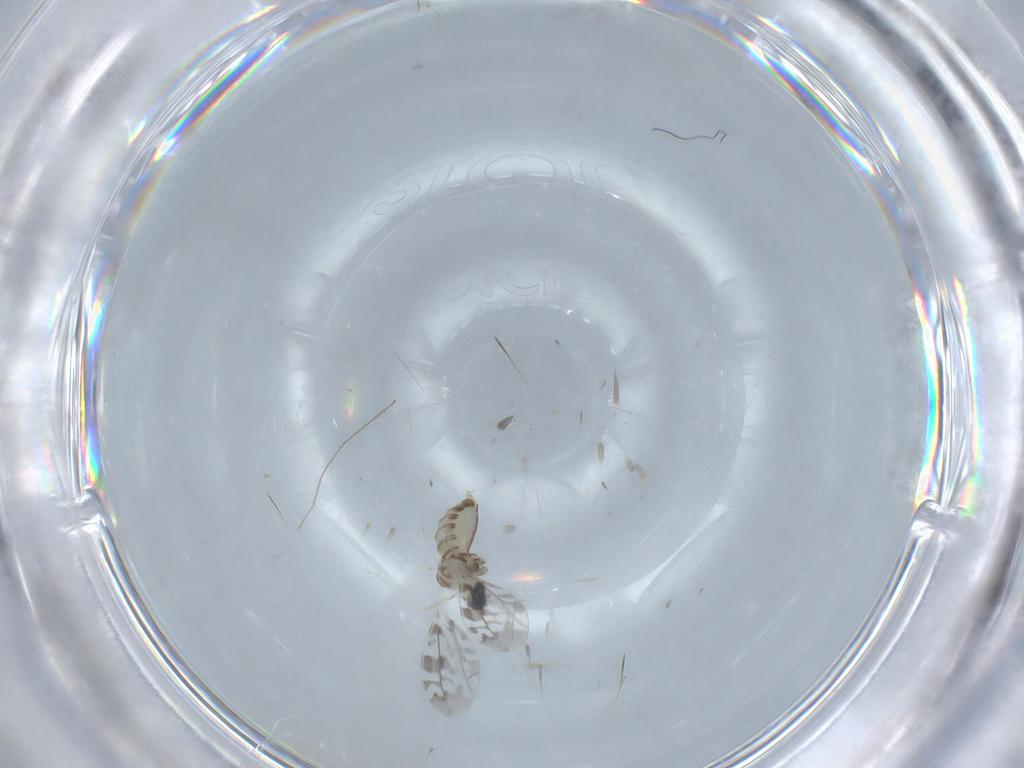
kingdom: Animalia
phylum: Arthropoda
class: Insecta
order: Diptera
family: Cecidomyiidae
